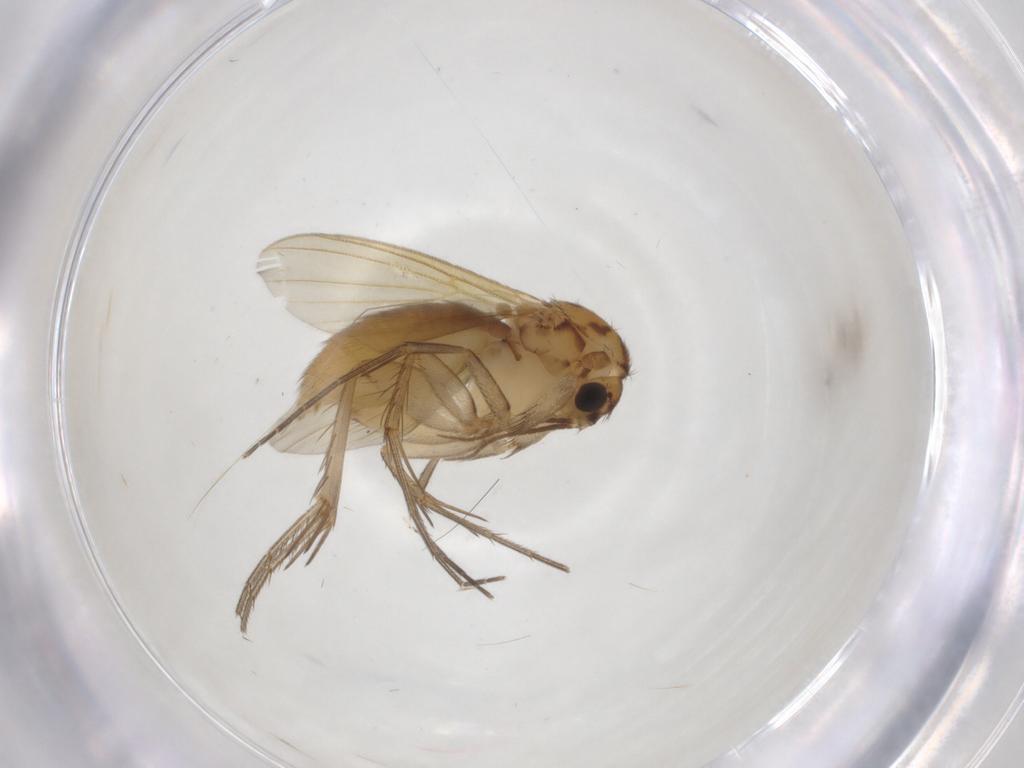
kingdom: Animalia
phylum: Arthropoda
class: Insecta
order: Diptera
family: Mycetophilidae
